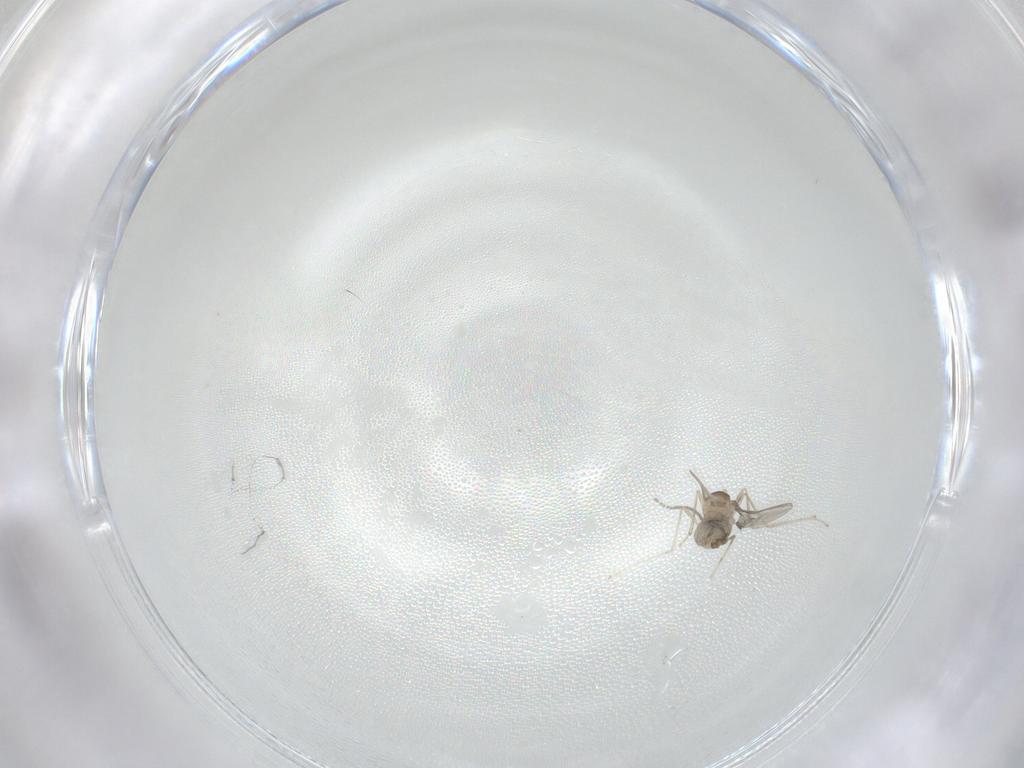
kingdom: Animalia
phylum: Arthropoda
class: Insecta
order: Diptera
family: Cecidomyiidae
